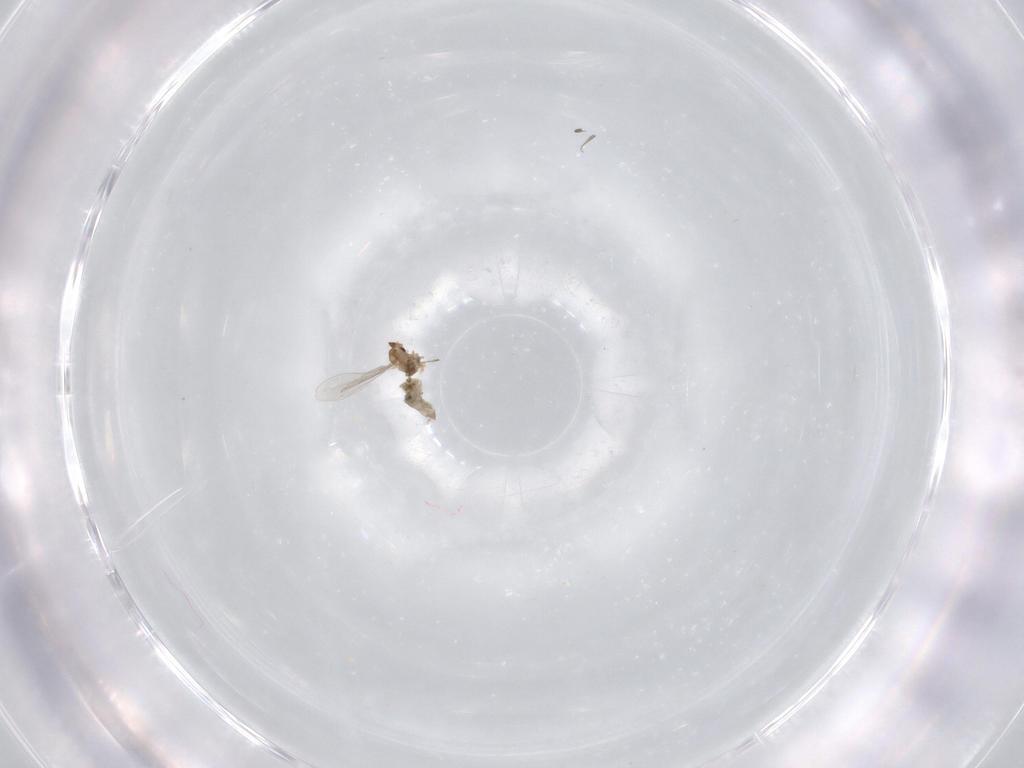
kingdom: Animalia
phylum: Arthropoda
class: Insecta
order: Diptera
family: Cecidomyiidae
